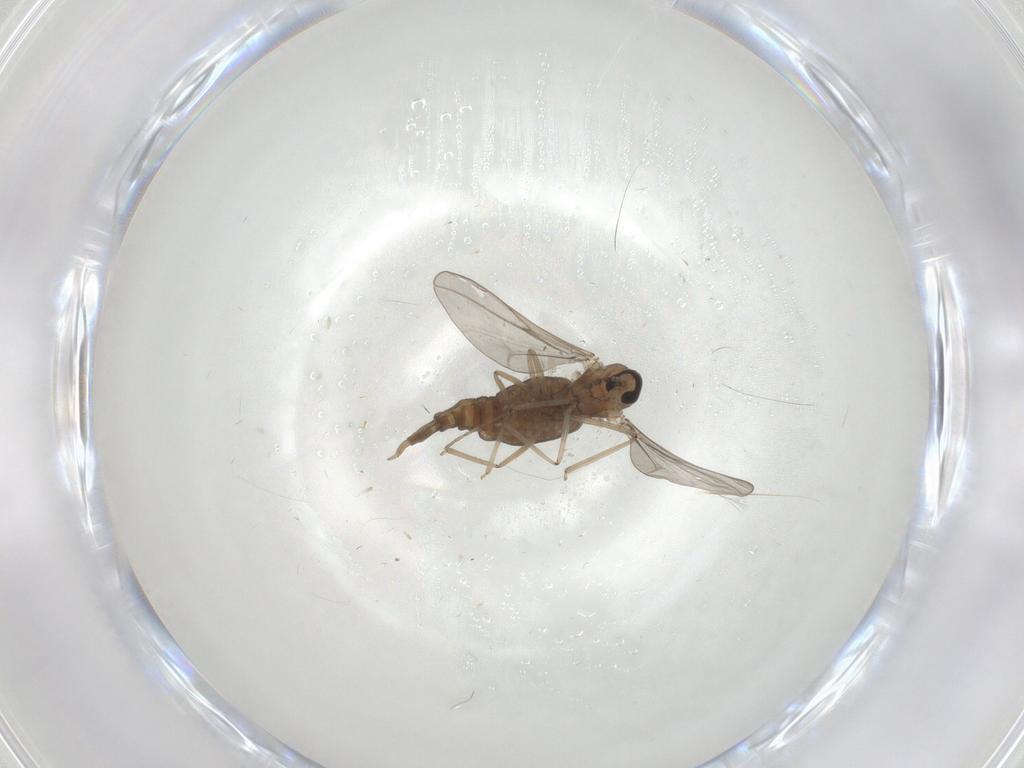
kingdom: Animalia
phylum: Arthropoda
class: Insecta
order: Diptera
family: Cecidomyiidae
